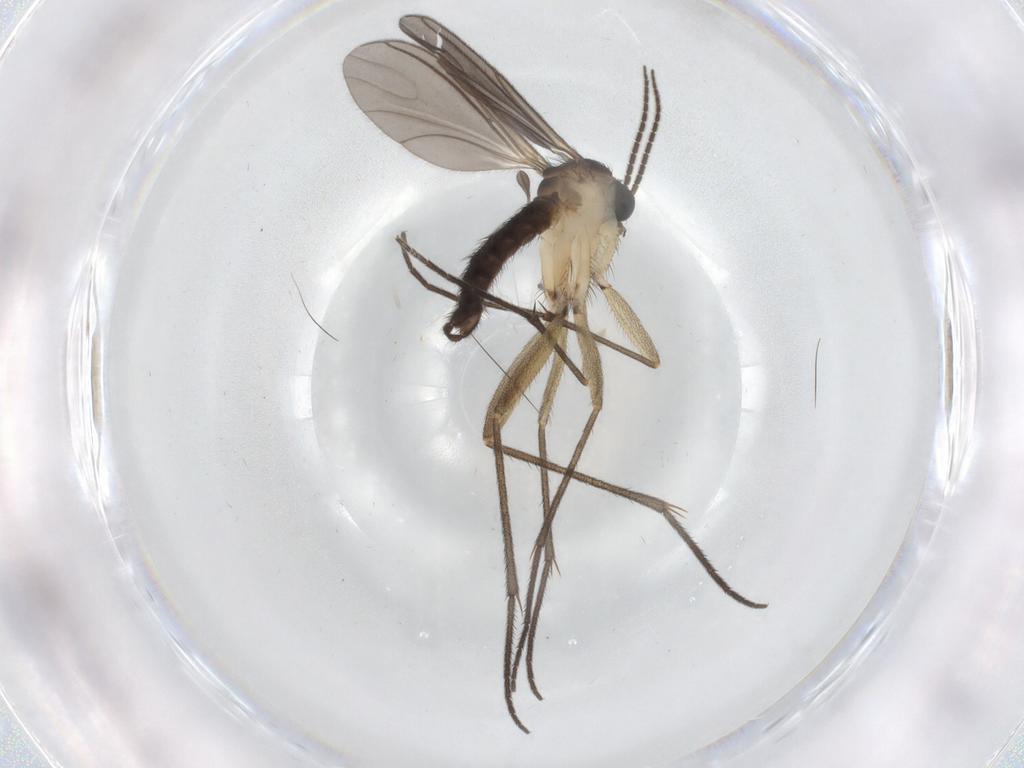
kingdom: Animalia
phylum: Arthropoda
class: Insecta
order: Diptera
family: Sciaridae
